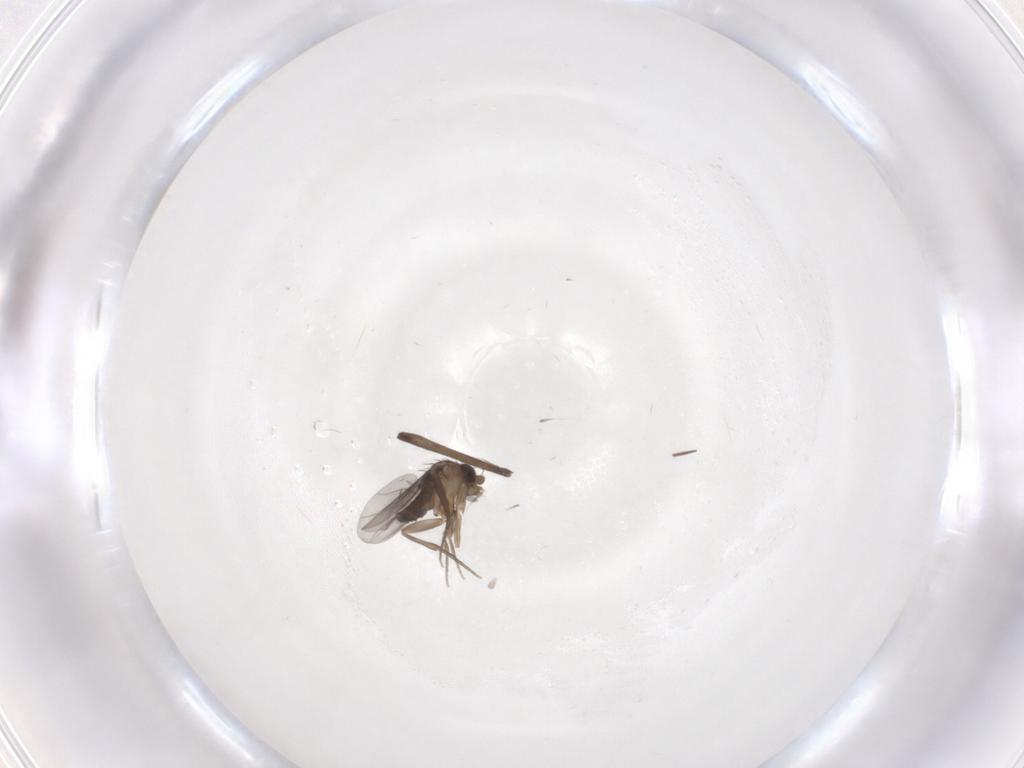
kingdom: Animalia
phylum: Arthropoda
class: Insecta
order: Diptera
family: Phoridae
